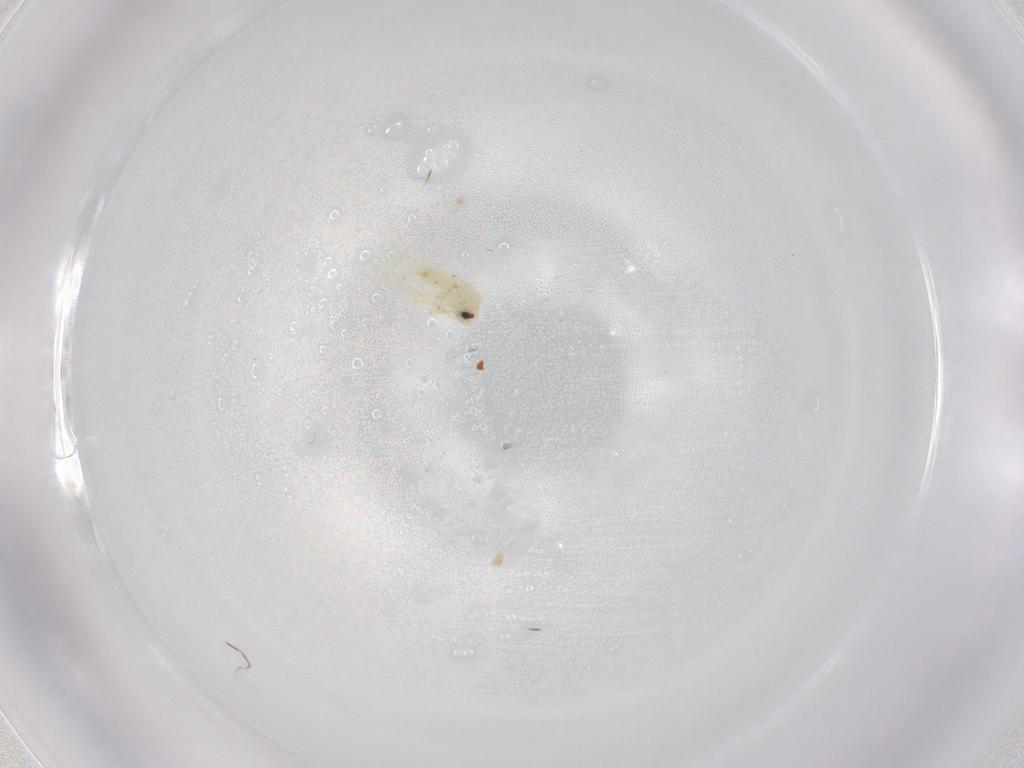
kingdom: Animalia
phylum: Arthropoda
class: Insecta
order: Hemiptera
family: Aleyrodidae
